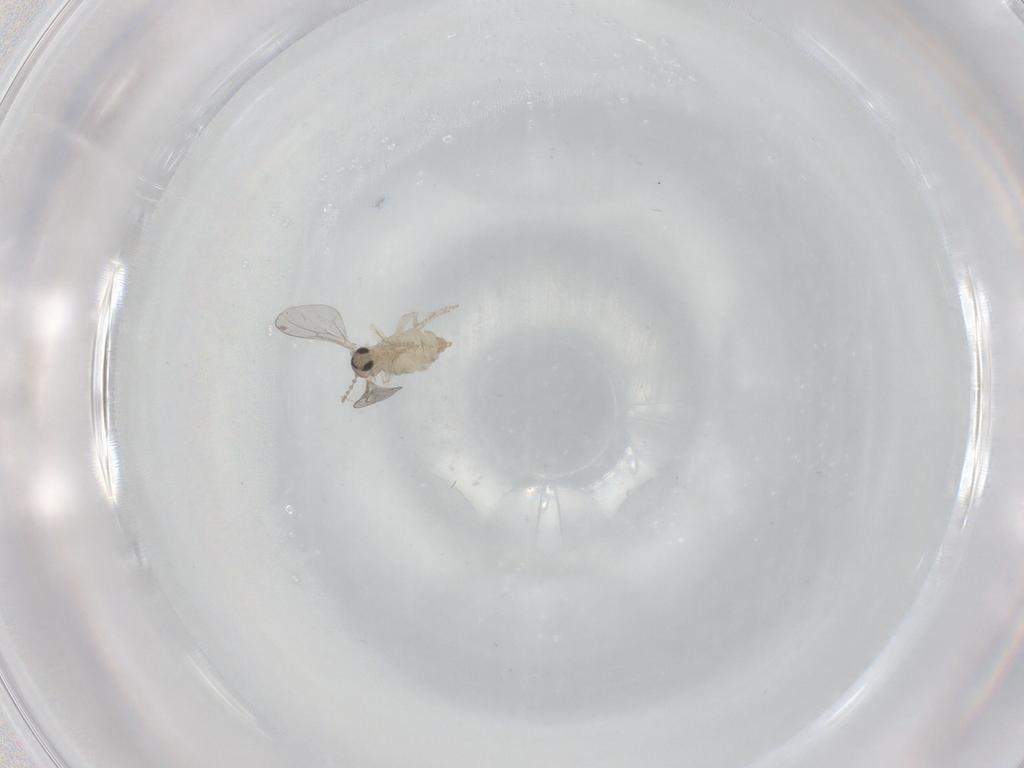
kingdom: Animalia
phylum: Arthropoda
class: Insecta
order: Diptera
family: Cecidomyiidae
